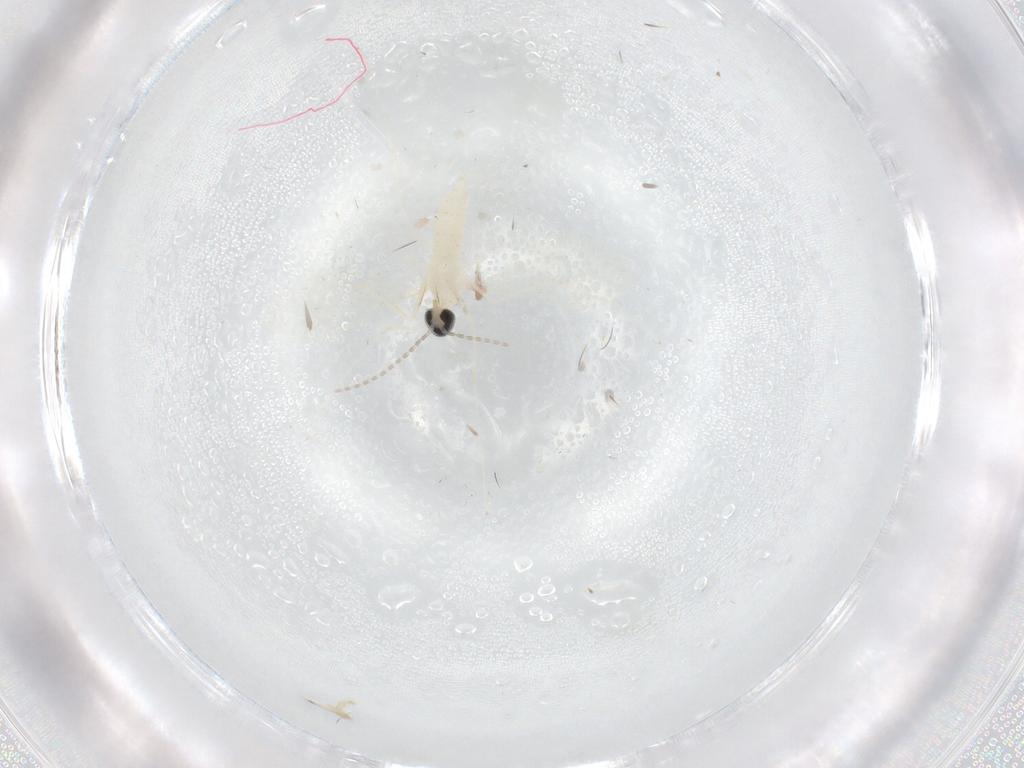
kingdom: Animalia
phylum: Arthropoda
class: Insecta
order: Diptera
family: Cecidomyiidae
